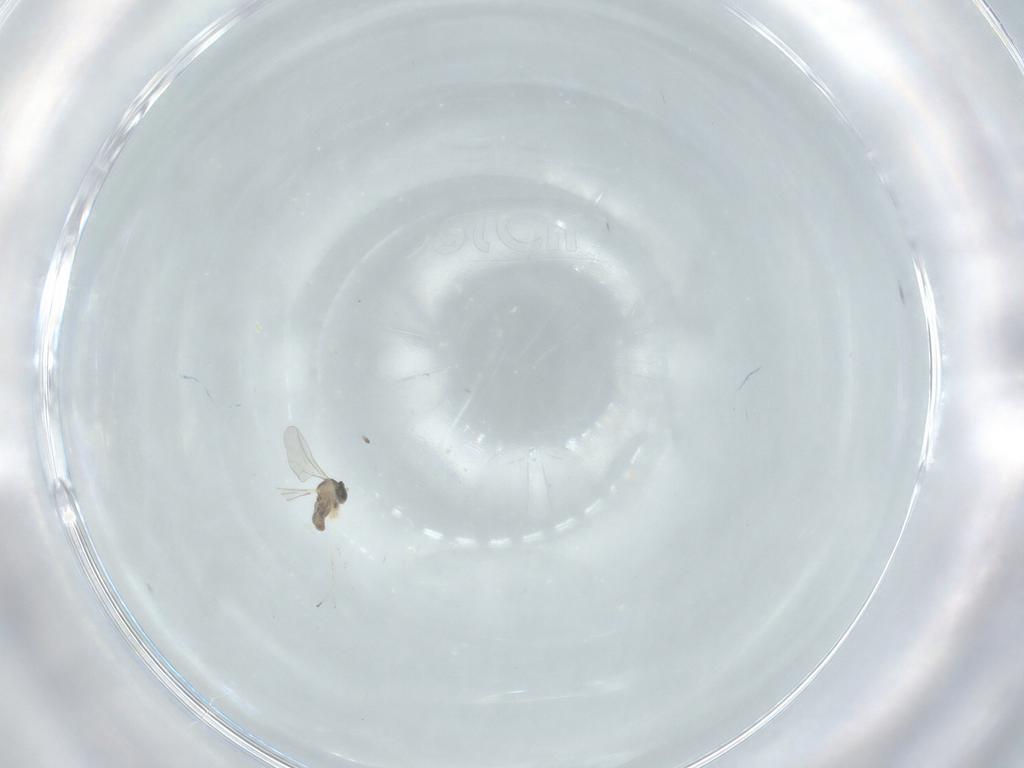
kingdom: Animalia
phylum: Arthropoda
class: Insecta
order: Diptera
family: Cecidomyiidae
